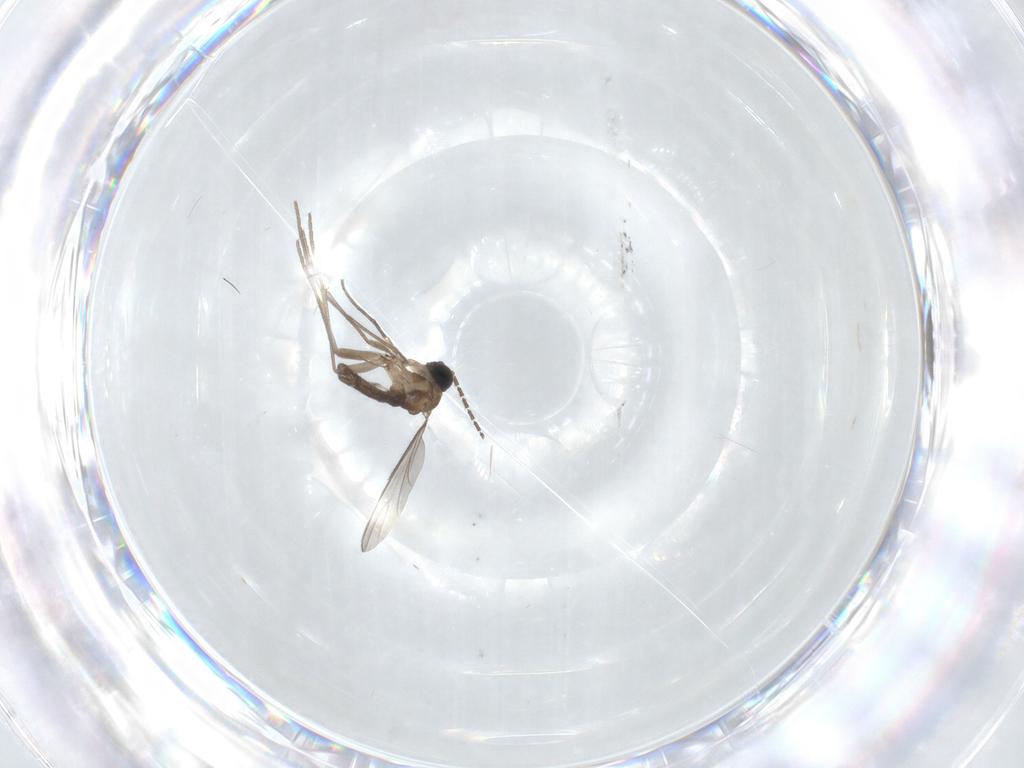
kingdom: Animalia
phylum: Arthropoda
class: Insecta
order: Diptera
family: Sciaridae
